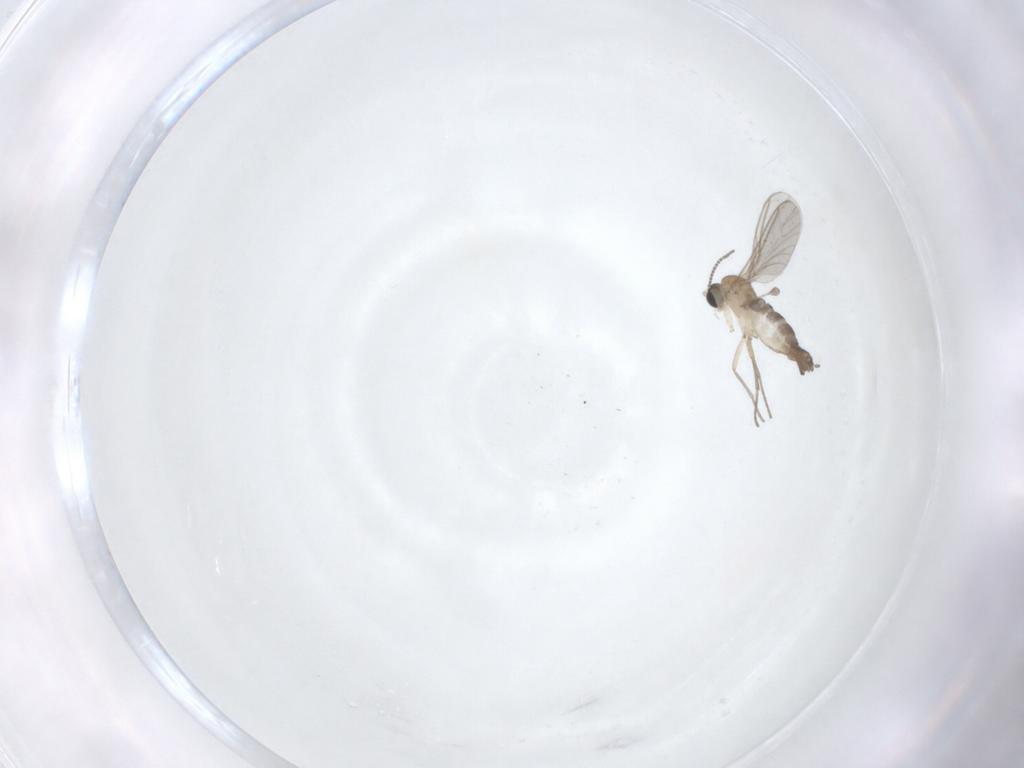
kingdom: Animalia
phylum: Arthropoda
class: Insecta
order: Diptera
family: Sciaridae
